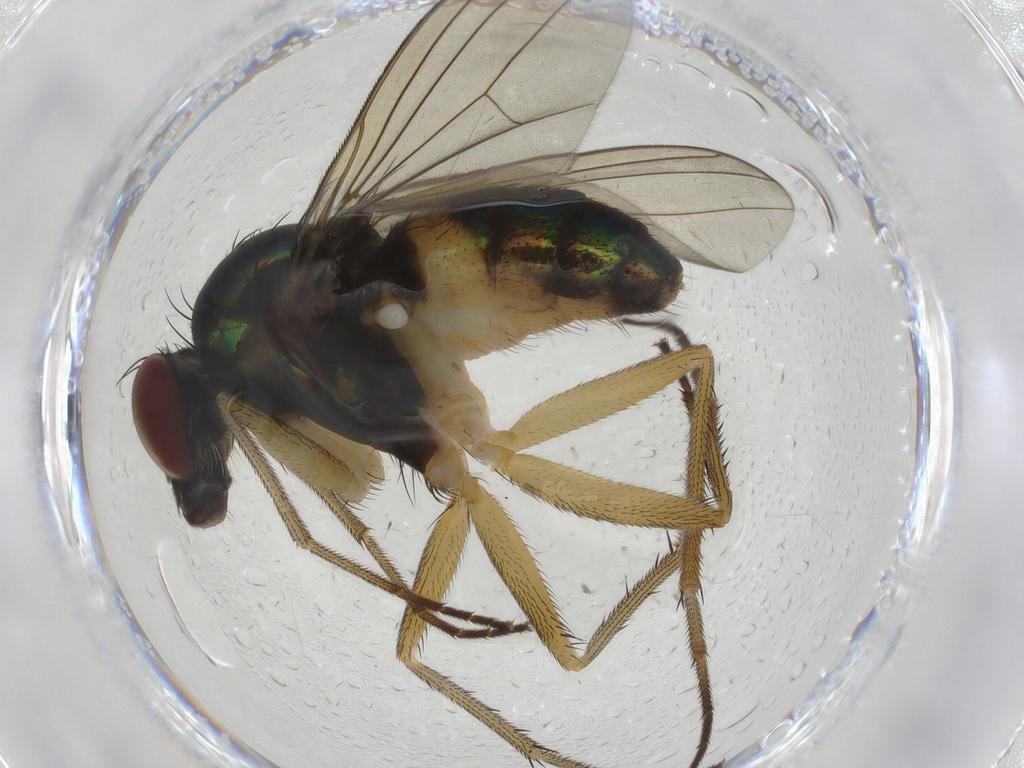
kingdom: Animalia
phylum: Arthropoda
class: Insecta
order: Diptera
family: Dolichopodidae
